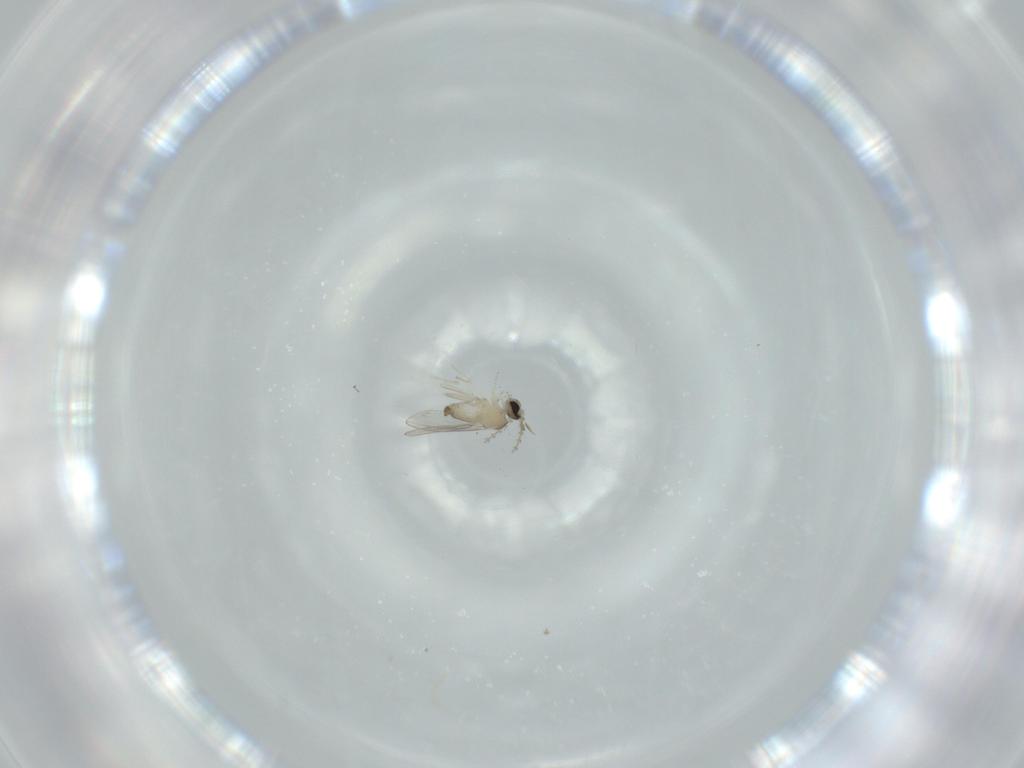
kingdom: Animalia
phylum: Arthropoda
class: Insecta
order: Diptera
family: Cecidomyiidae
